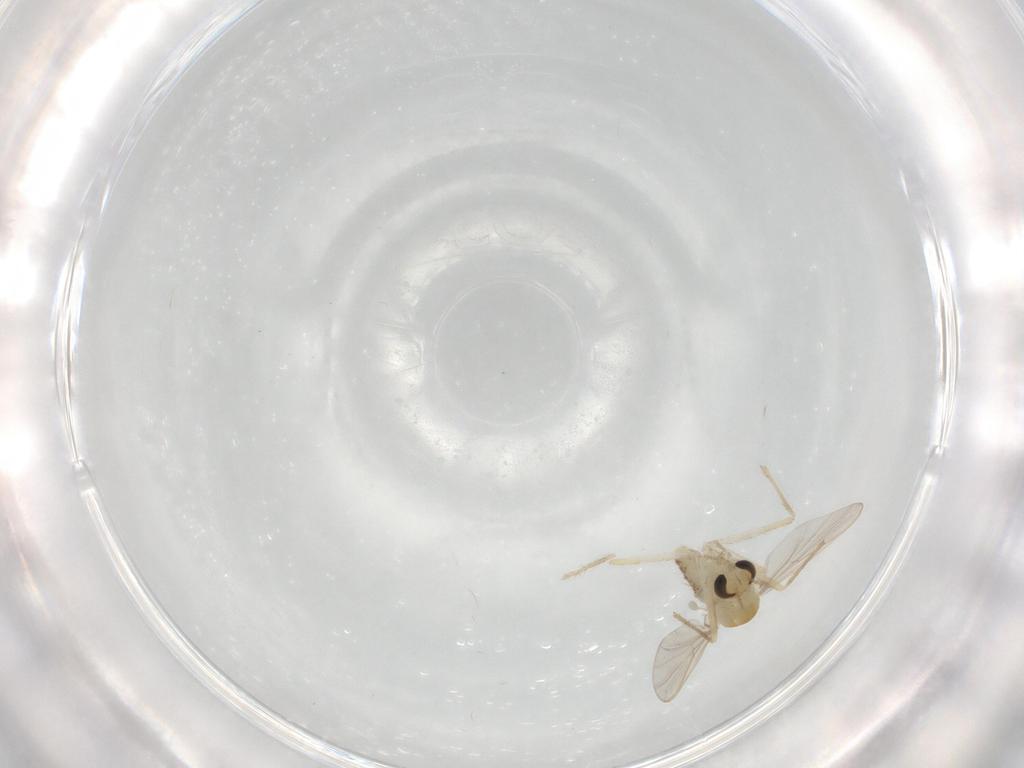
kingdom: Animalia
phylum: Arthropoda
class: Insecta
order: Diptera
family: Chironomidae
